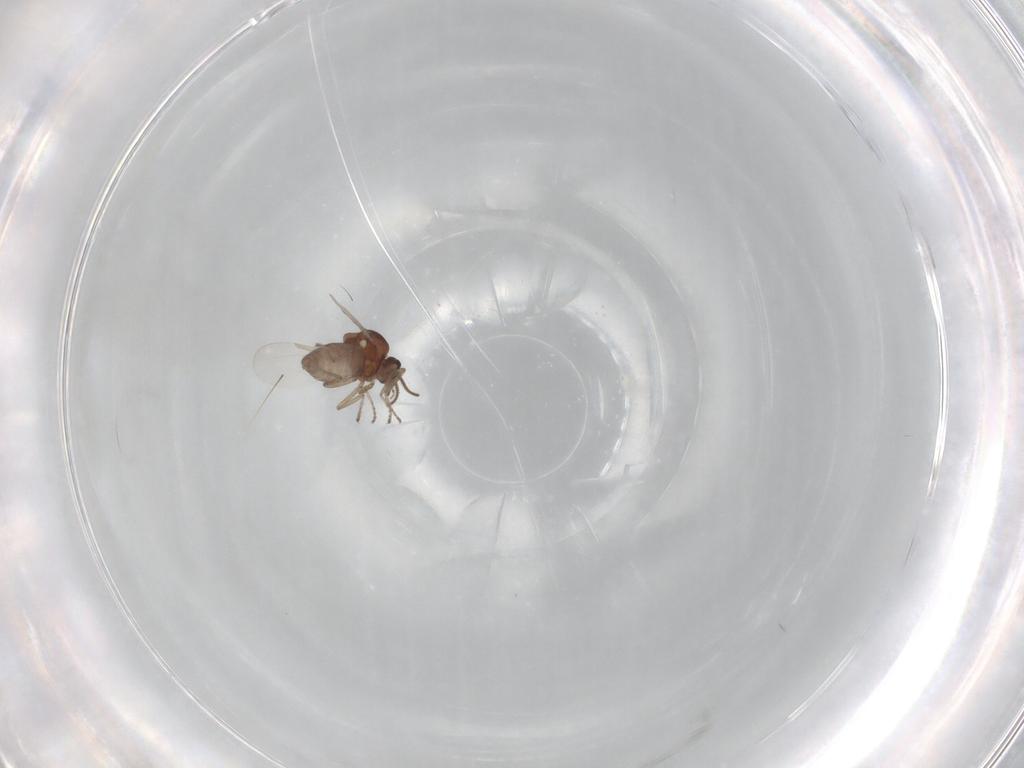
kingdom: Animalia
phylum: Arthropoda
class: Insecta
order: Diptera
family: Ceratopogonidae
